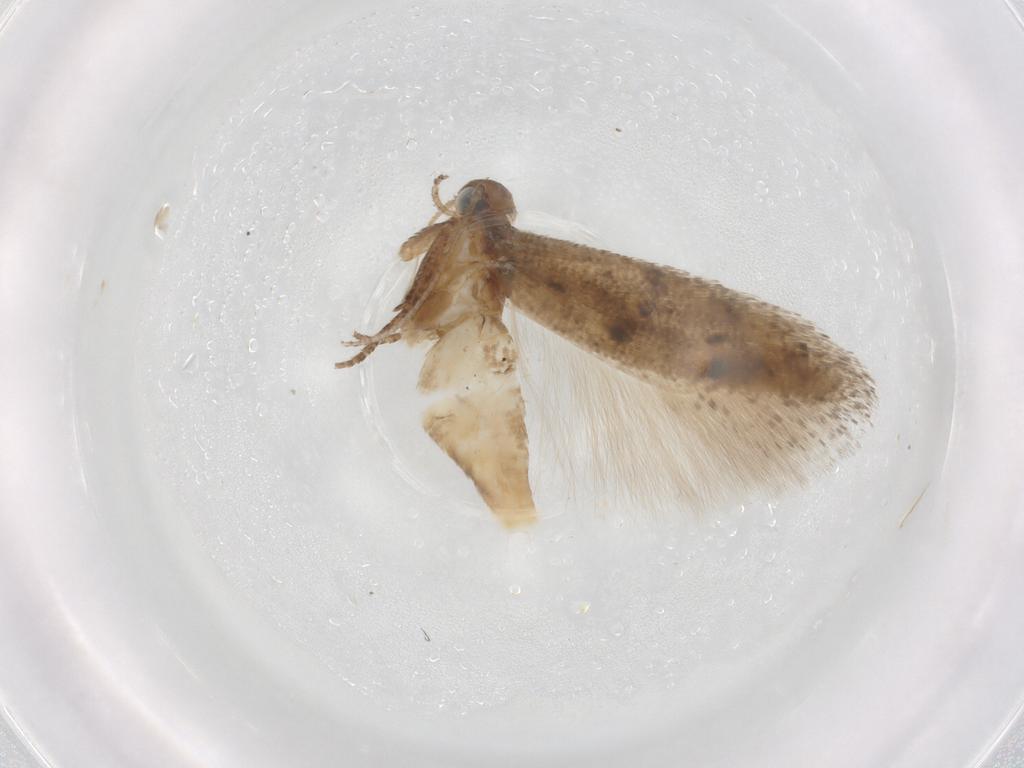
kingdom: Animalia
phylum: Arthropoda
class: Insecta
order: Lepidoptera
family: Gelechiidae
